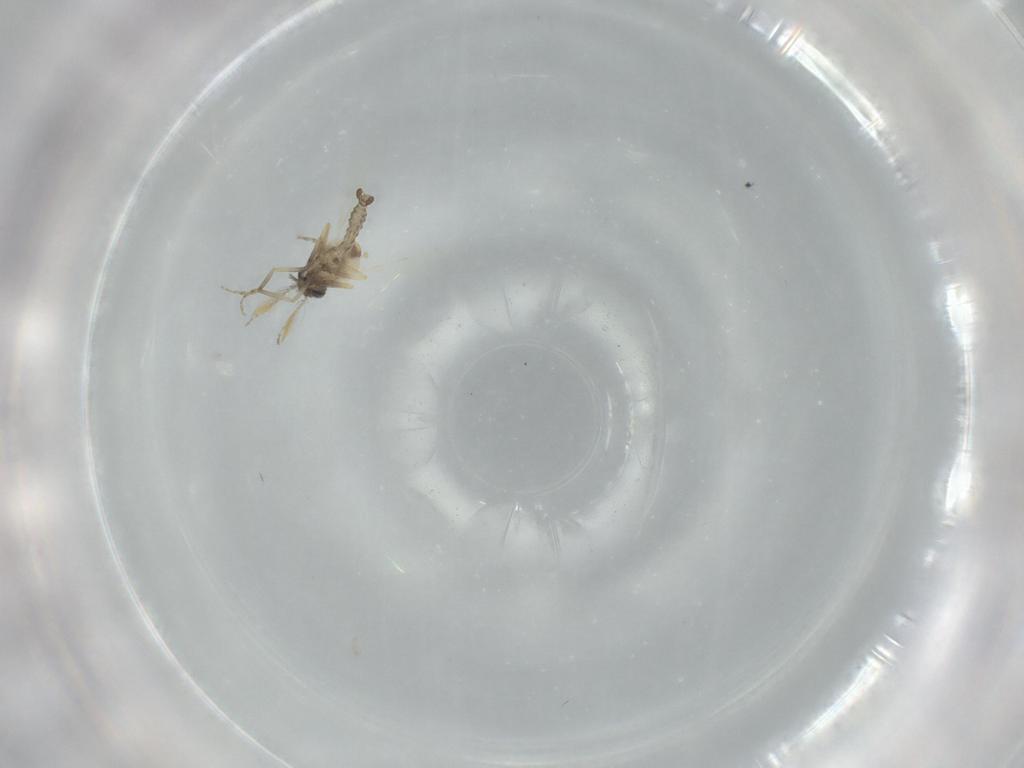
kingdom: Animalia
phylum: Arthropoda
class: Insecta
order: Diptera
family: Ceratopogonidae
